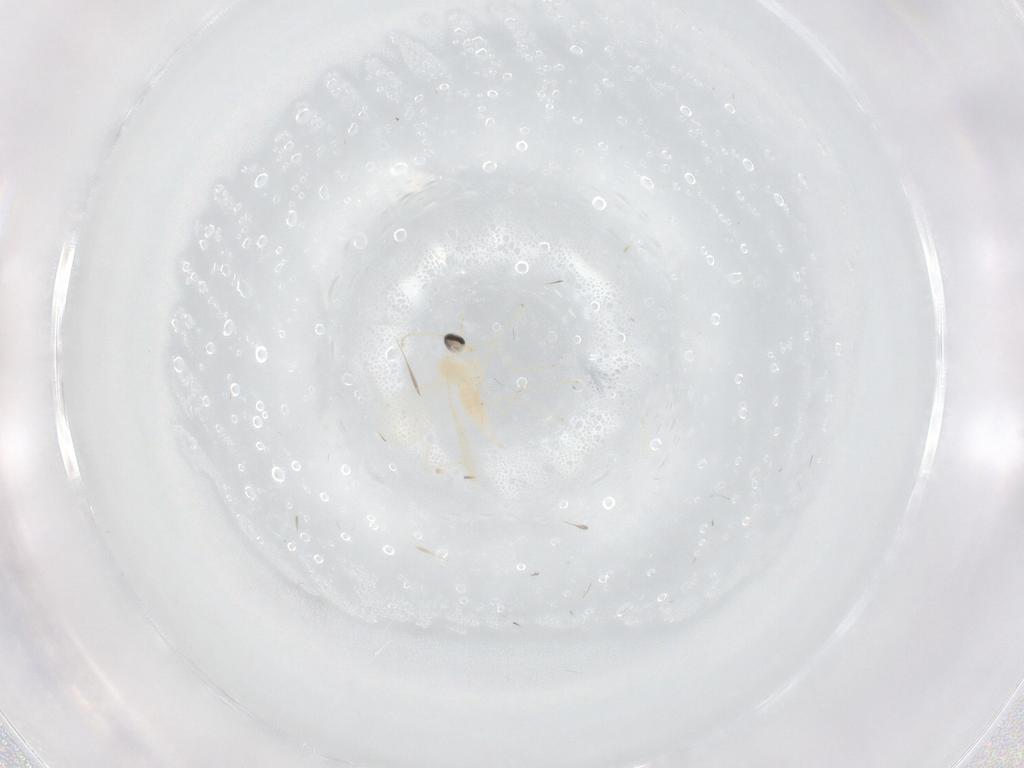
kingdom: Animalia
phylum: Arthropoda
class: Insecta
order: Diptera
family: Cecidomyiidae
